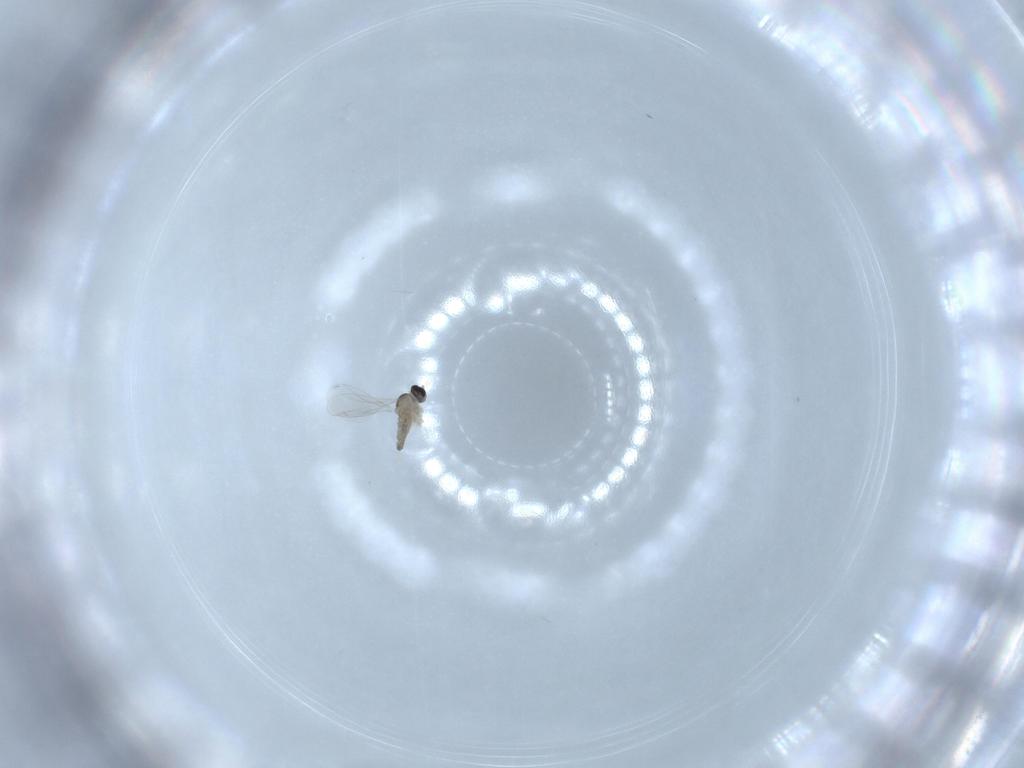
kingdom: Animalia
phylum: Arthropoda
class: Insecta
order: Diptera
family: Cecidomyiidae
